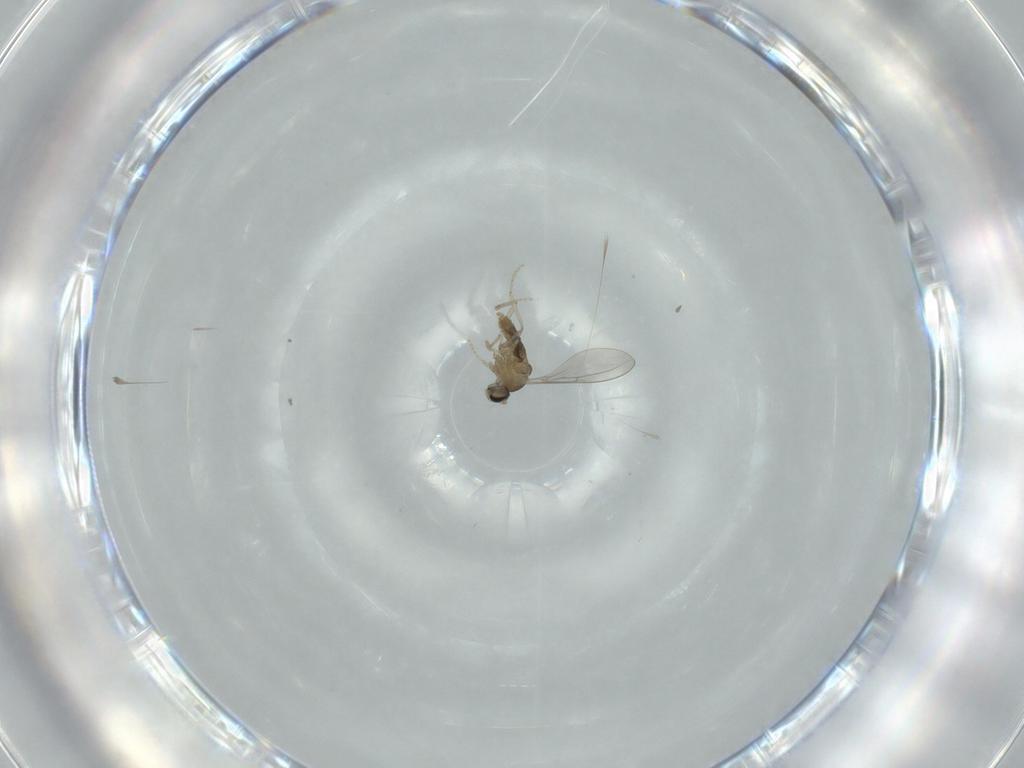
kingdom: Animalia
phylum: Arthropoda
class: Insecta
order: Diptera
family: Cecidomyiidae
